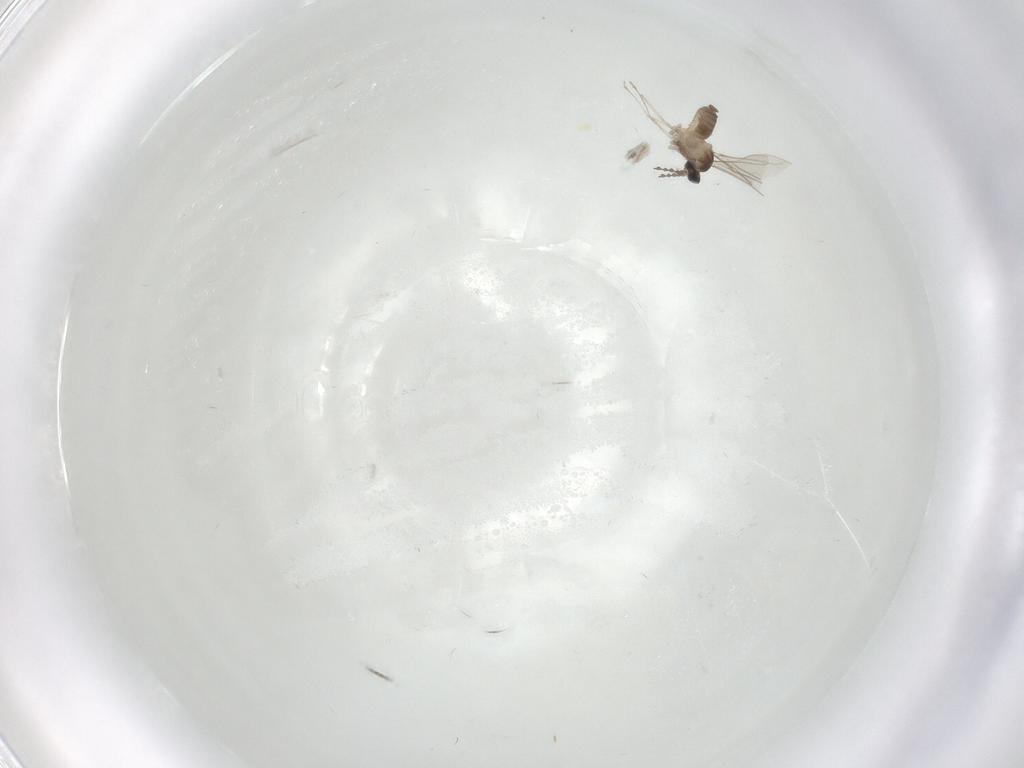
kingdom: Animalia
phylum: Arthropoda
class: Insecta
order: Diptera
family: Cecidomyiidae
